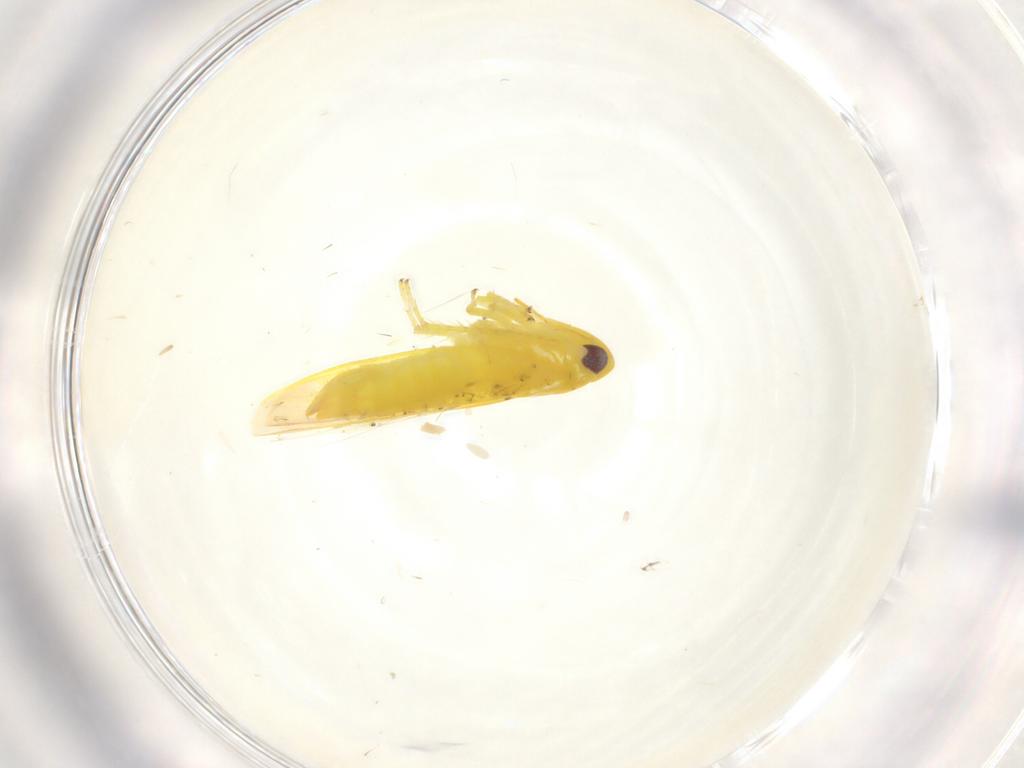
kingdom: Animalia
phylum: Arthropoda
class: Insecta
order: Hemiptera
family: Cicadellidae
